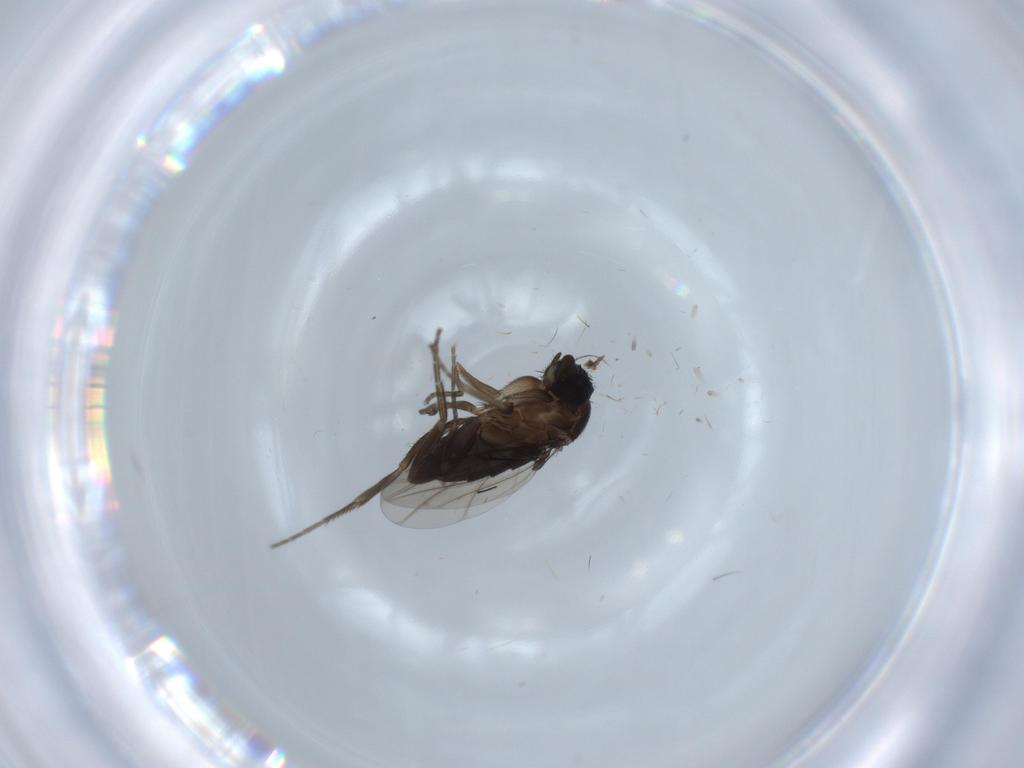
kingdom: Animalia
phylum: Arthropoda
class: Insecta
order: Diptera
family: Phoridae
